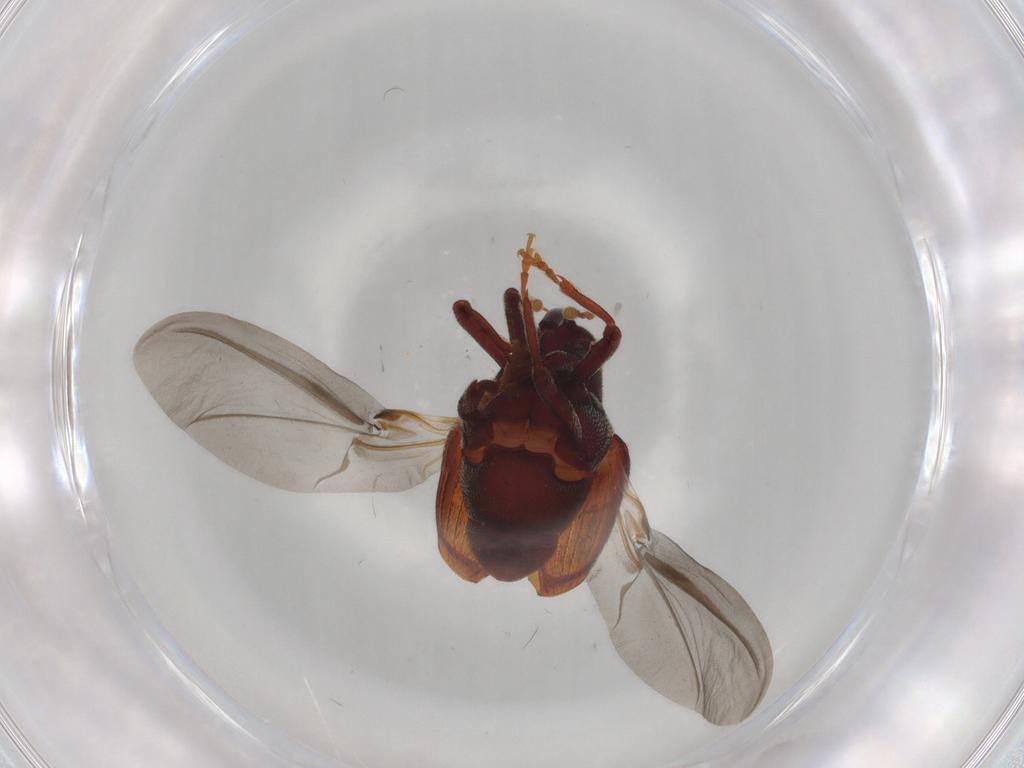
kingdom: Animalia
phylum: Arthropoda
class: Insecta
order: Coleoptera
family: Curculionidae
